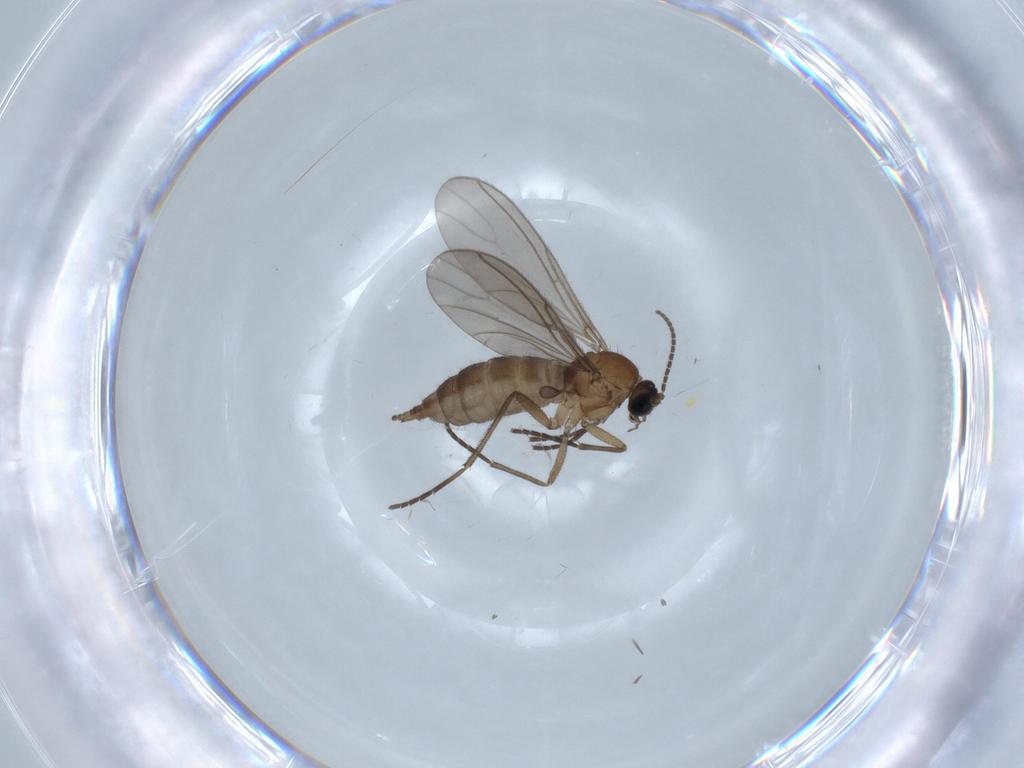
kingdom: Animalia
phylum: Arthropoda
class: Insecta
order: Diptera
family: Sciaridae
